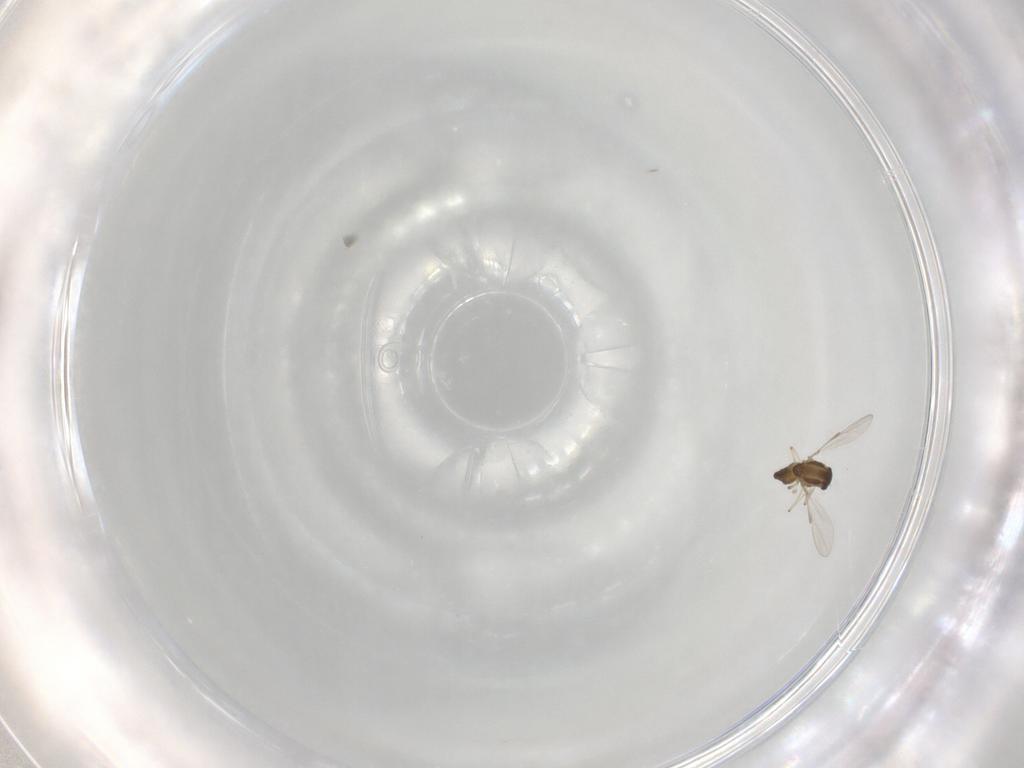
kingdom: Animalia
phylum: Arthropoda
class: Insecta
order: Diptera
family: Chironomidae
